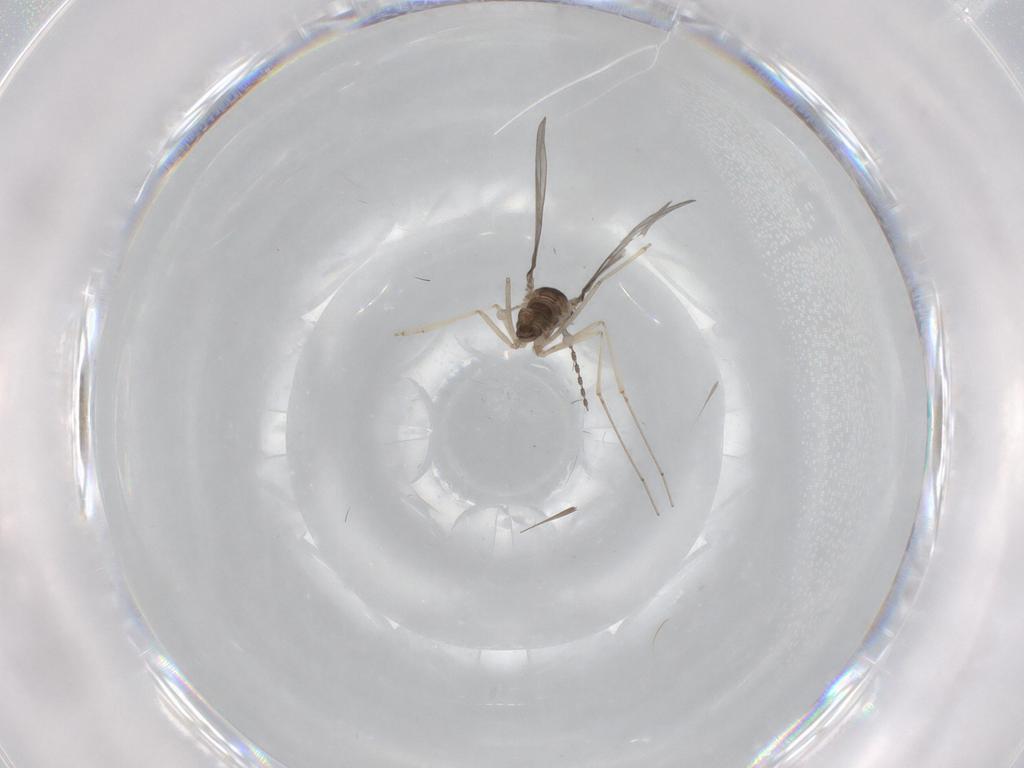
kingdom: Animalia
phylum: Arthropoda
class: Insecta
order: Diptera
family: Cecidomyiidae
